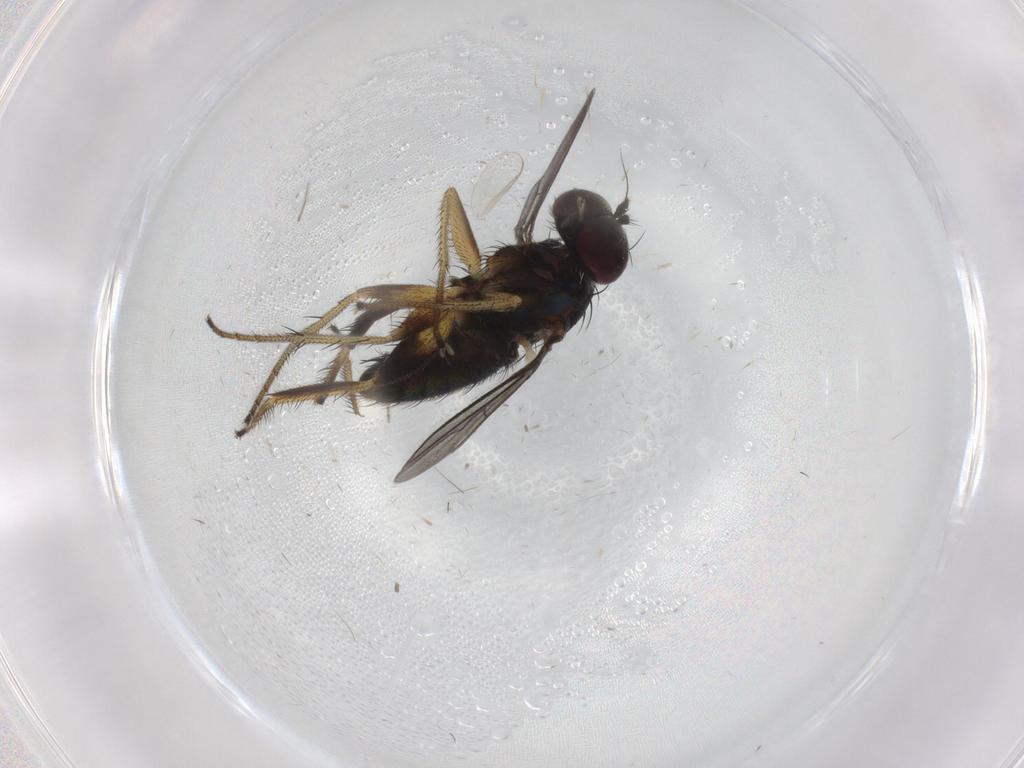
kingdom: Animalia
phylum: Arthropoda
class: Insecta
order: Diptera
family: Dolichopodidae
